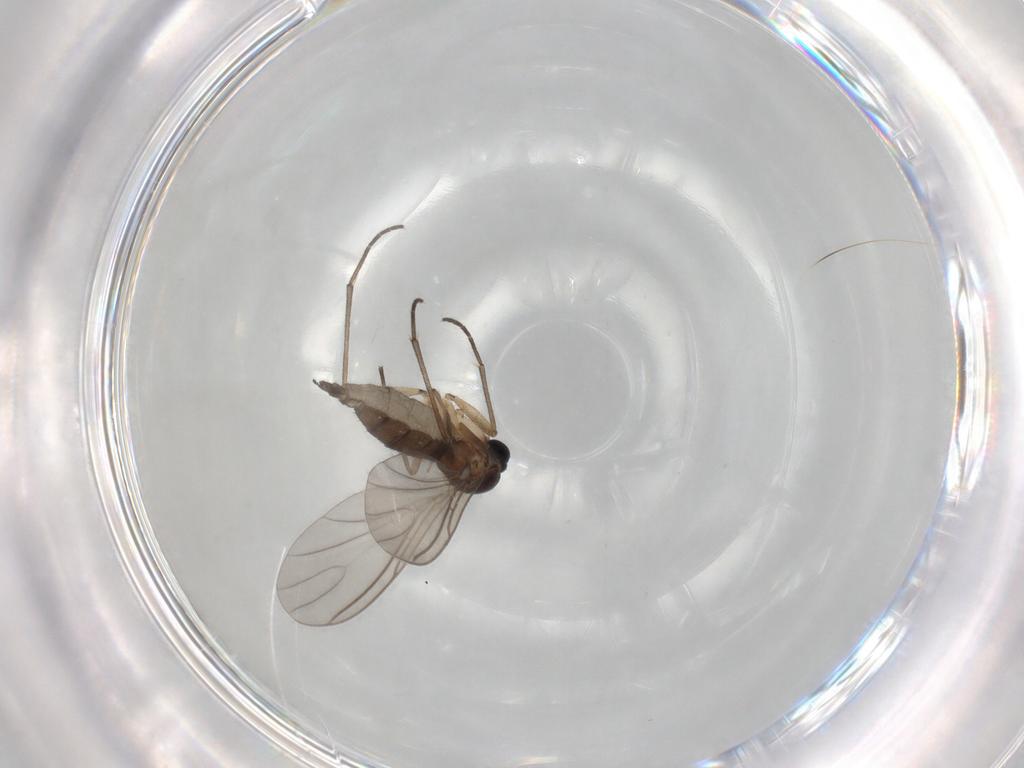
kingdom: Animalia
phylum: Arthropoda
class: Insecta
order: Diptera
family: Sciaridae
